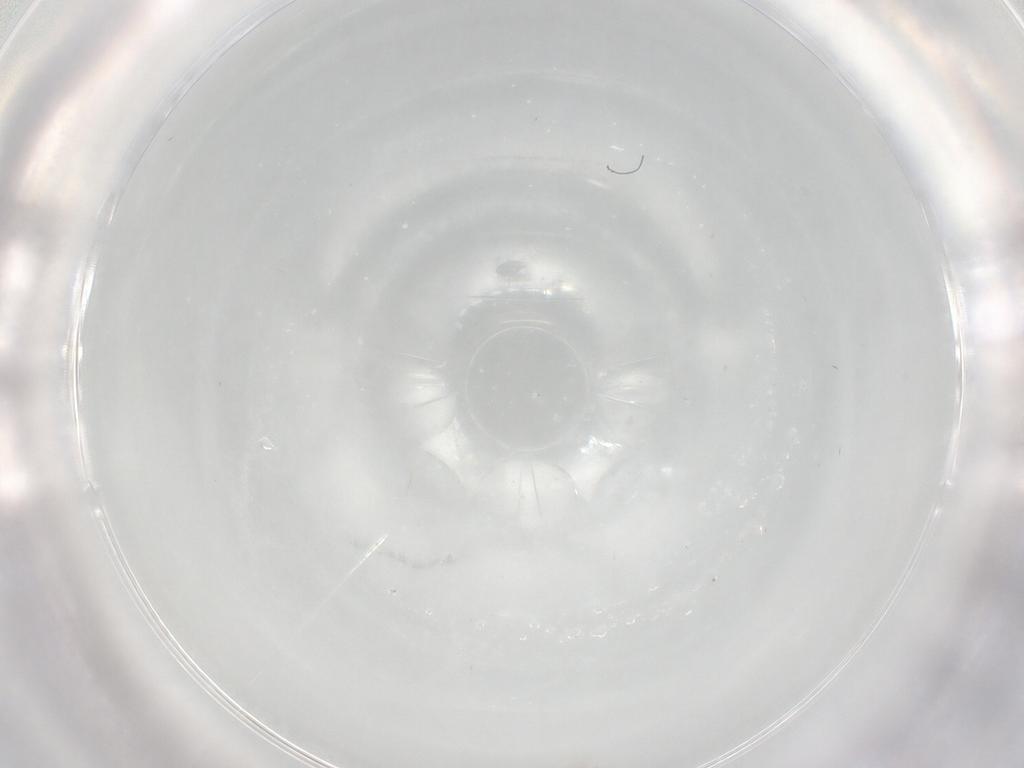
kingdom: Animalia
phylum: Arthropoda
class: Insecta
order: Diptera
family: Chironomidae
